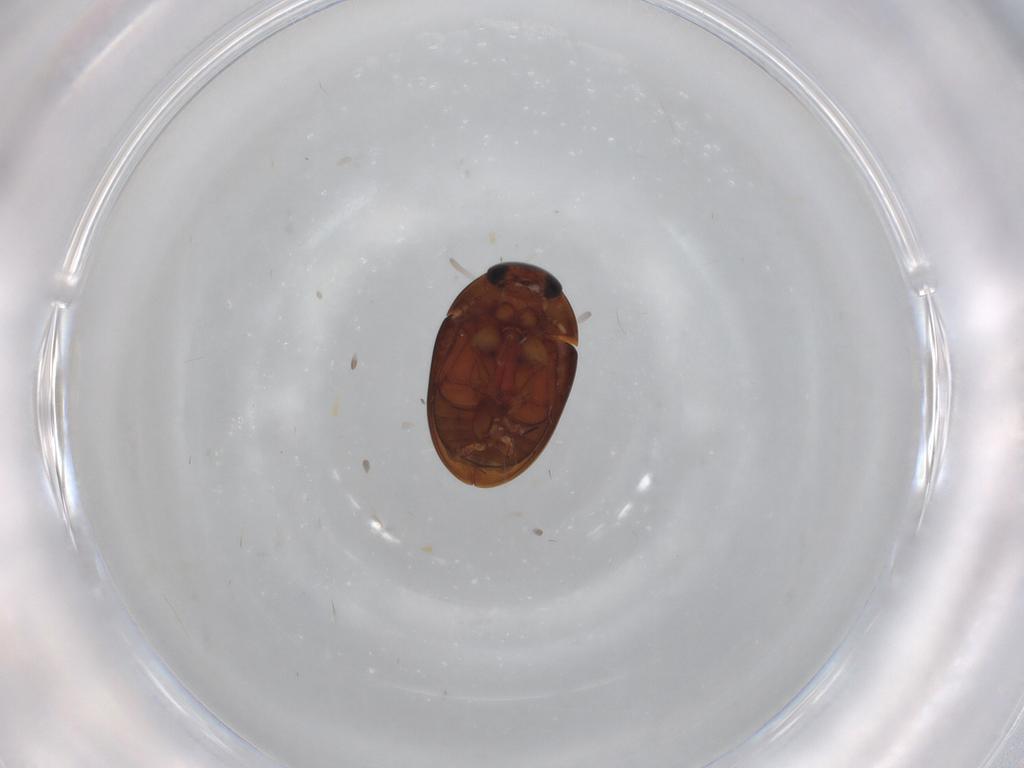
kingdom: Animalia
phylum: Arthropoda
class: Insecta
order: Coleoptera
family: Phalacridae
